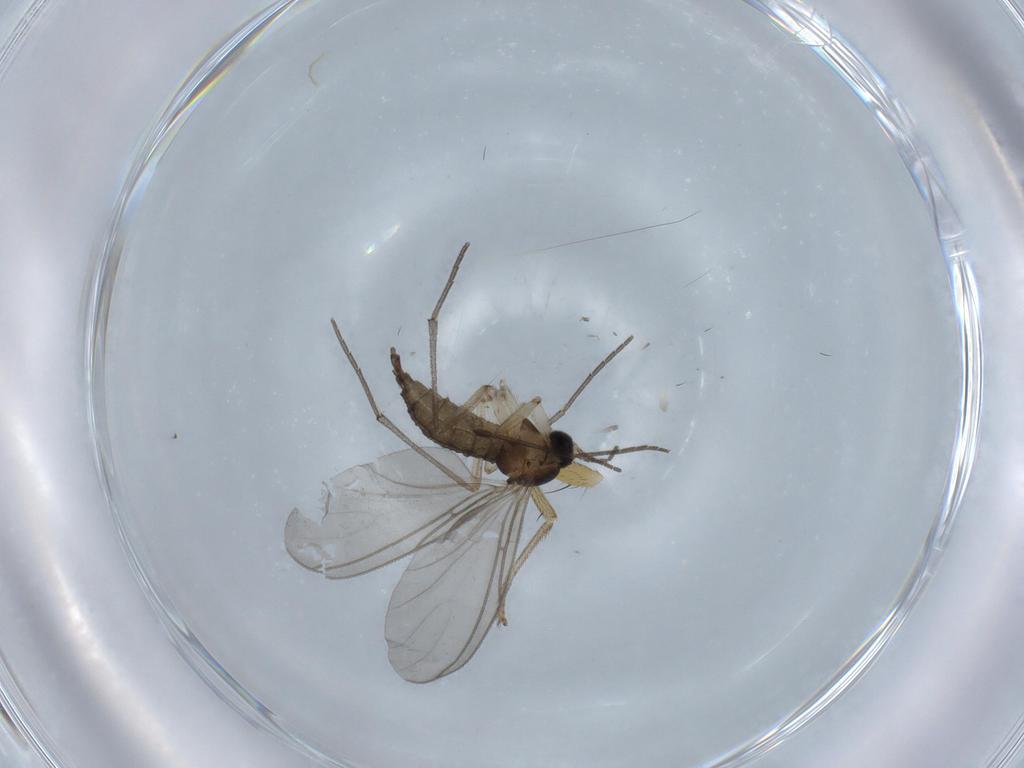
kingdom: Animalia
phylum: Arthropoda
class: Insecta
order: Diptera
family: Sciaridae
